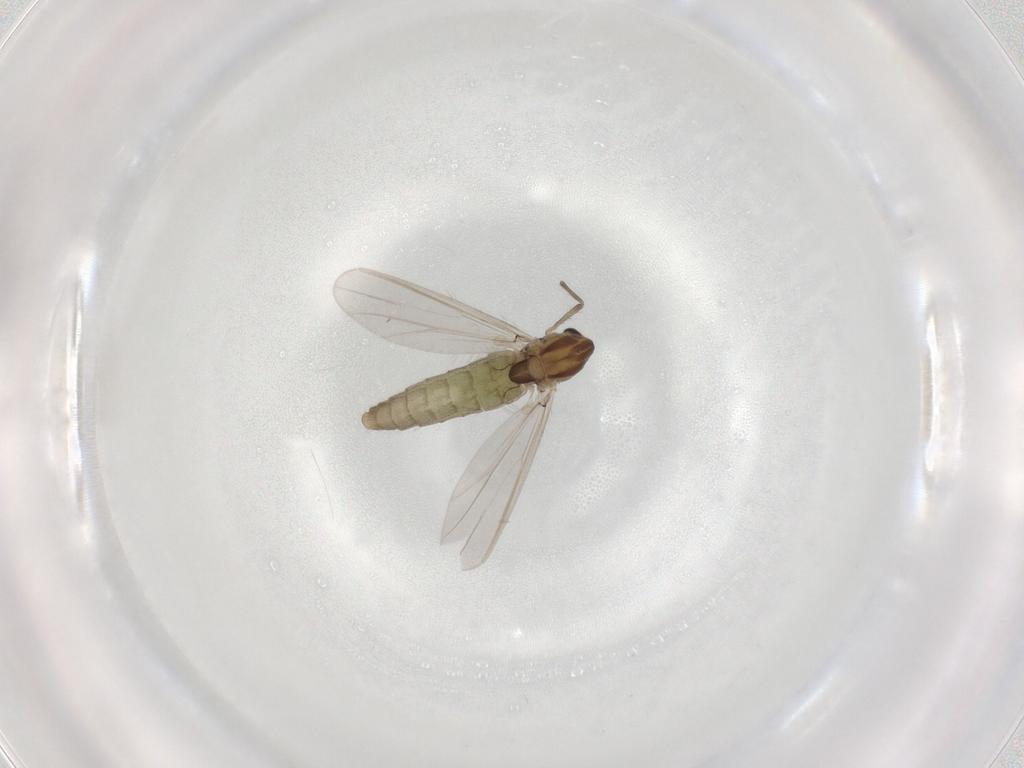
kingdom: Animalia
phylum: Arthropoda
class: Insecta
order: Diptera
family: Chironomidae
